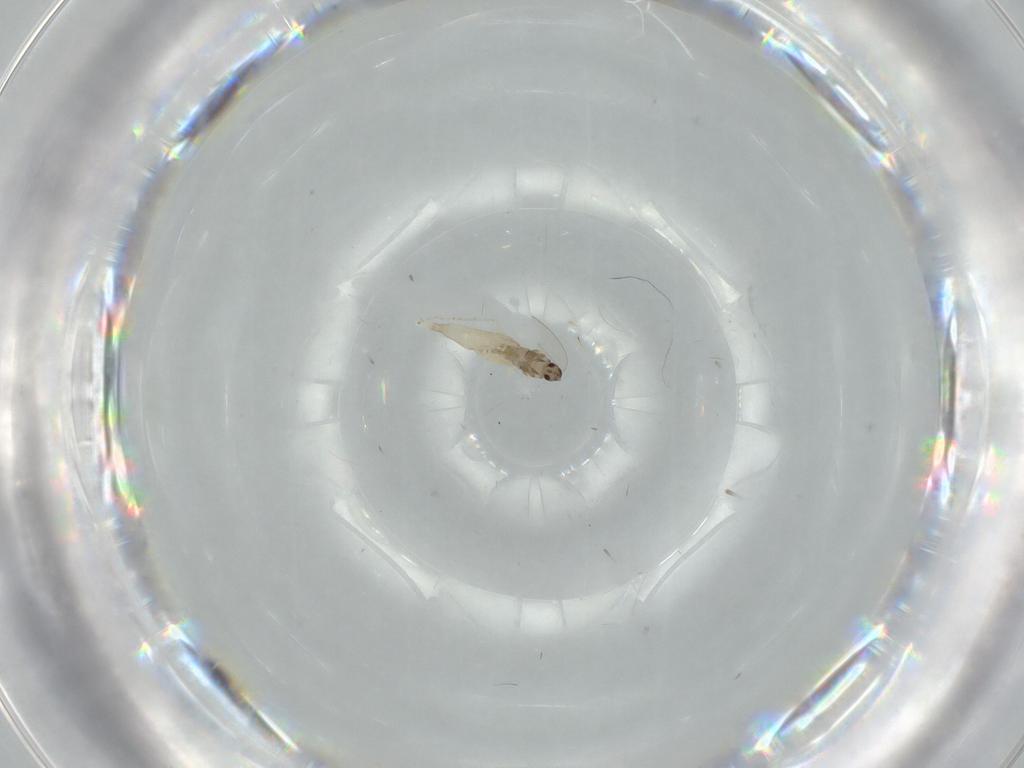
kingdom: Animalia
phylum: Arthropoda
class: Insecta
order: Diptera
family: Cecidomyiidae
